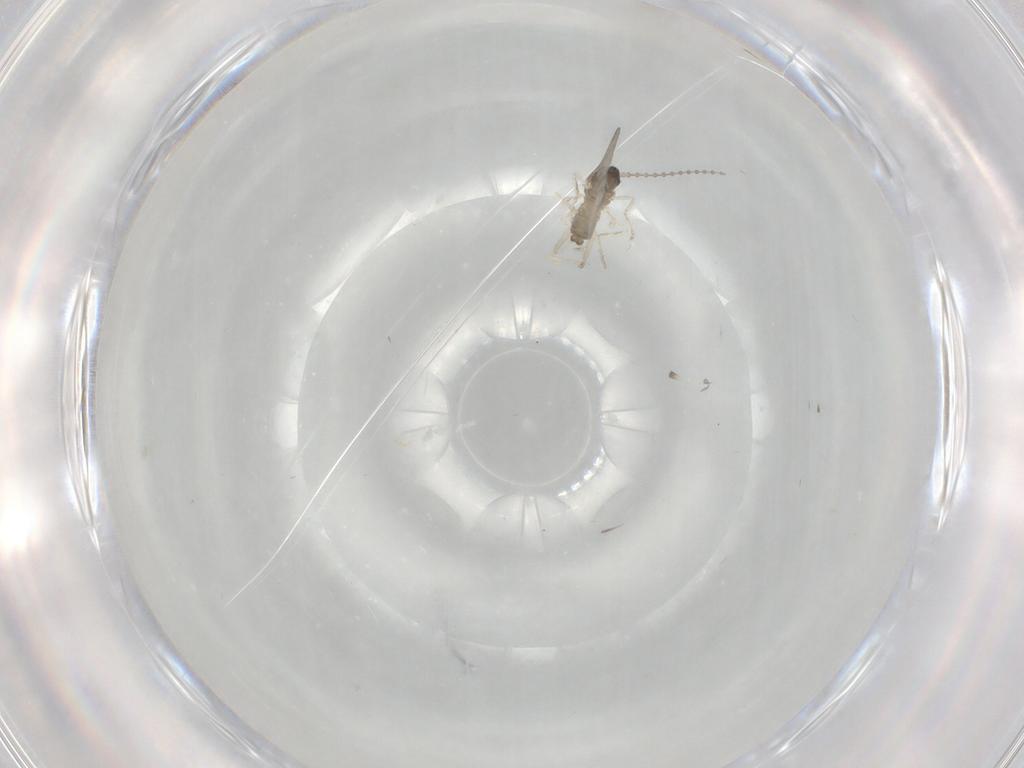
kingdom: Animalia
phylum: Arthropoda
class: Insecta
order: Diptera
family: Cecidomyiidae
